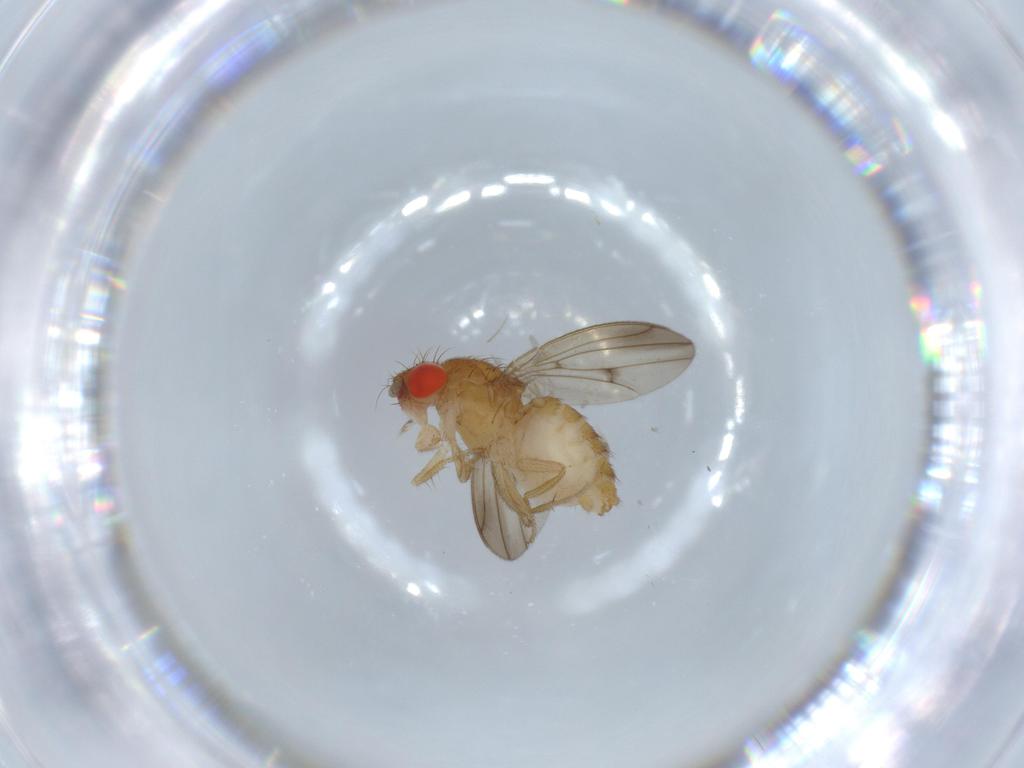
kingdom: Animalia
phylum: Arthropoda
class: Insecta
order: Diptera
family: Drosophilidae
